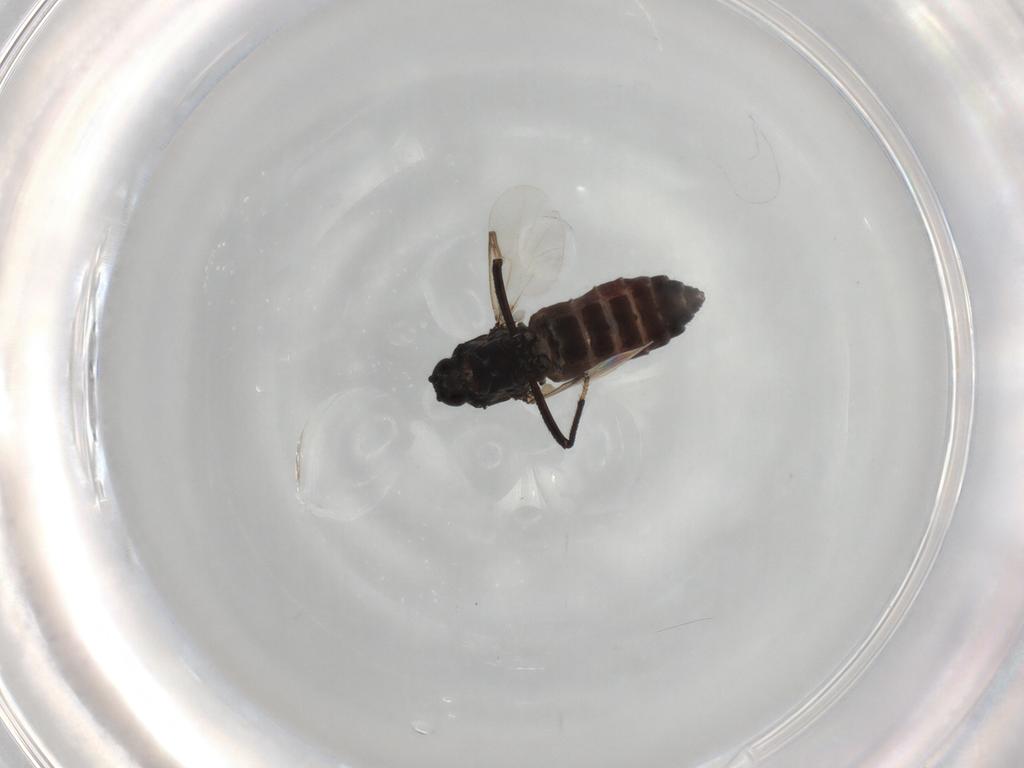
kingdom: Animalia
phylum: Arthropoda
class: Insecta
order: Diptera
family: Ceratopogonidae
